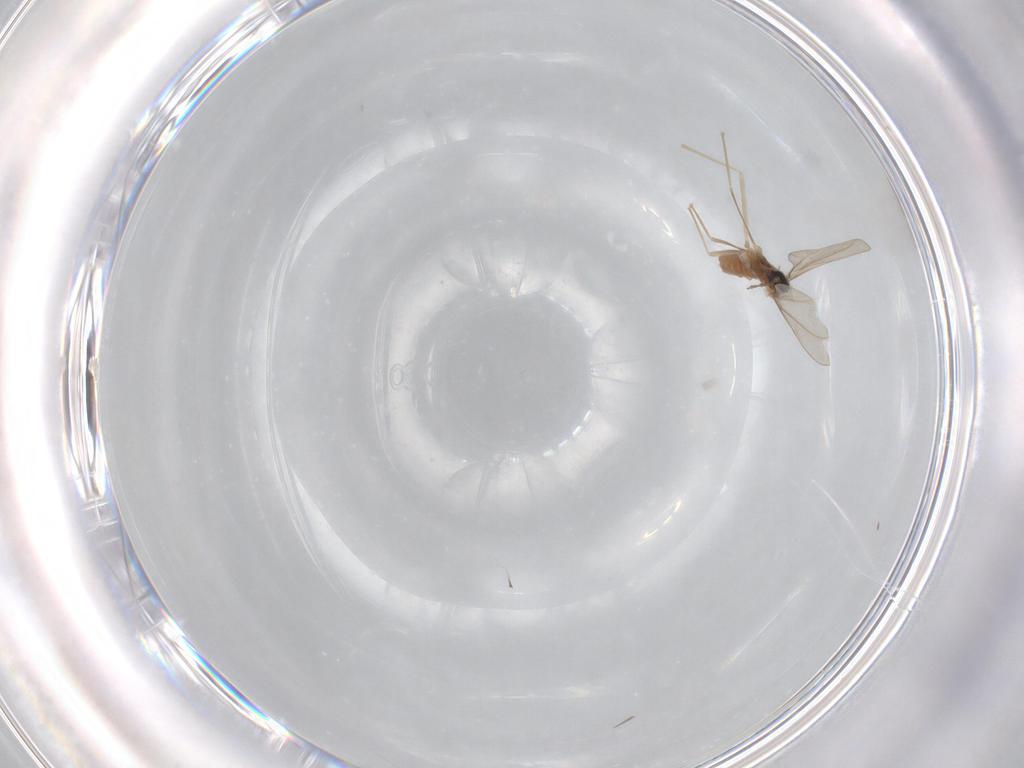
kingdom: Animalia
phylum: Arthropoda
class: Insecta
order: Diptera
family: Cecidomyiidae
